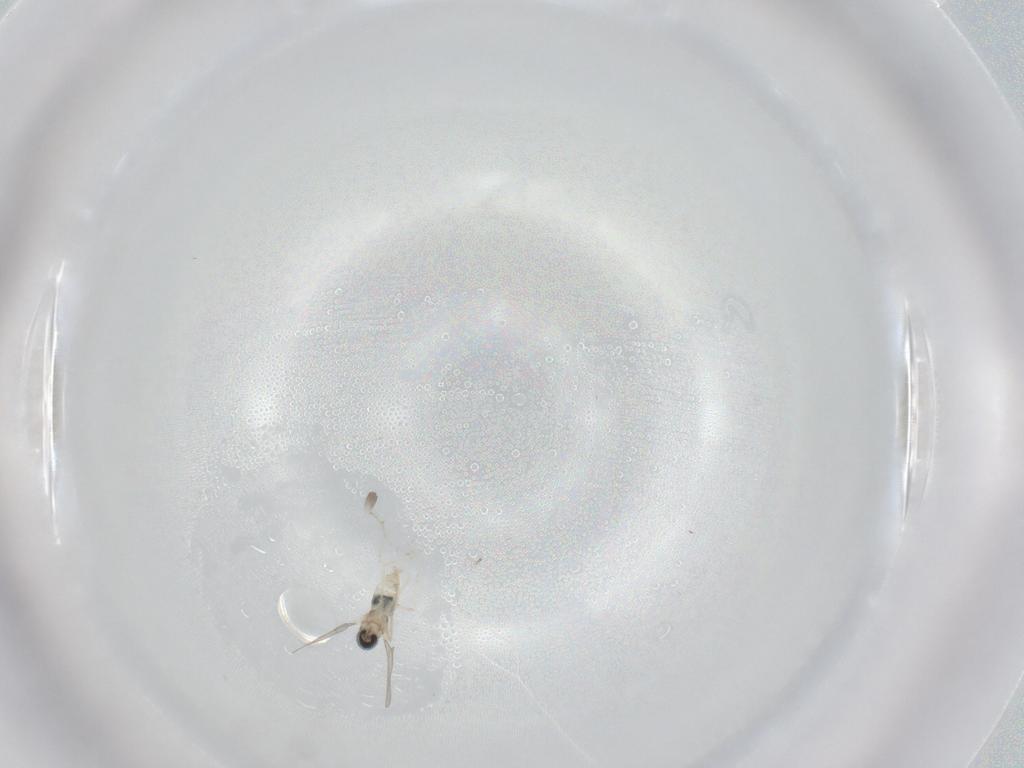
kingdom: Animalia
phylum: Arthropoda
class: Insecta
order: Diptera
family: Cecidomyiidae
